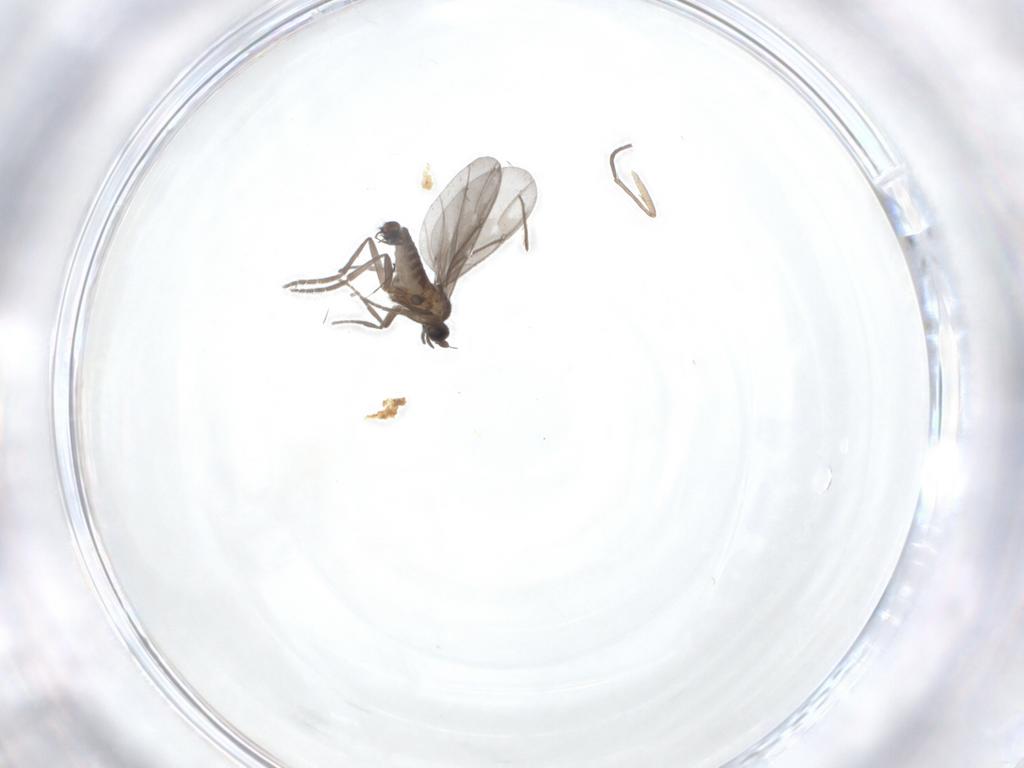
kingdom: Animalia
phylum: Arthropoda
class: Insecta
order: Diptera
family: Phoridae
